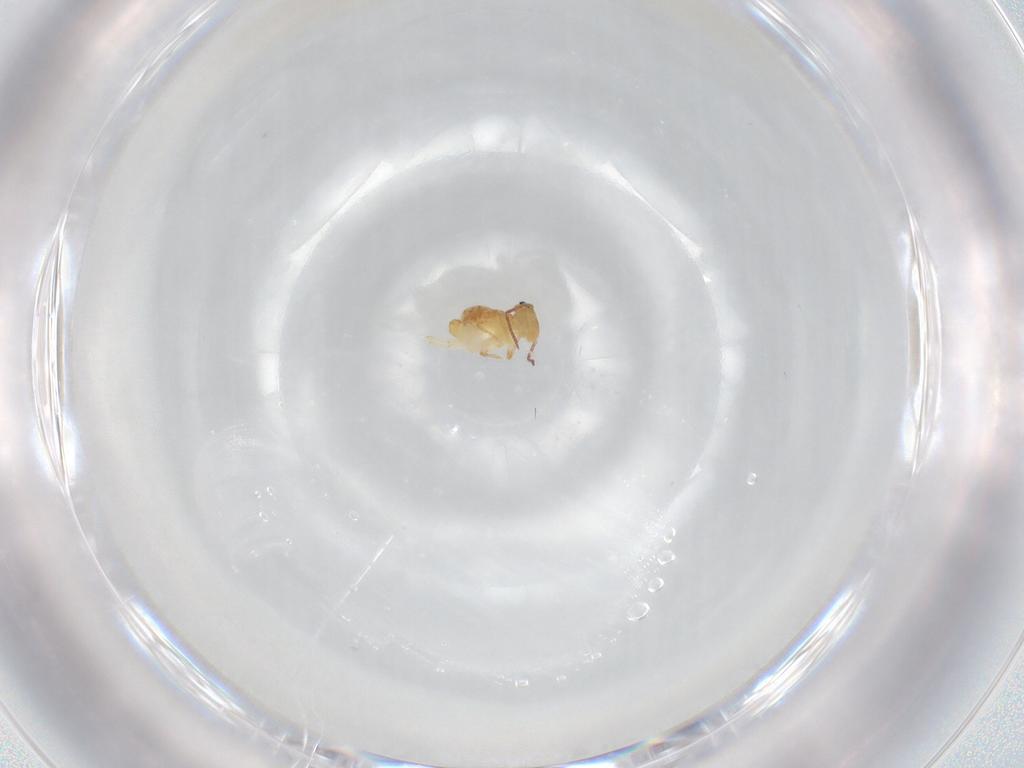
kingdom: Animalia
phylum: Arthropoda
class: Collembola
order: Symphypleona
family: Bourletiellidae
